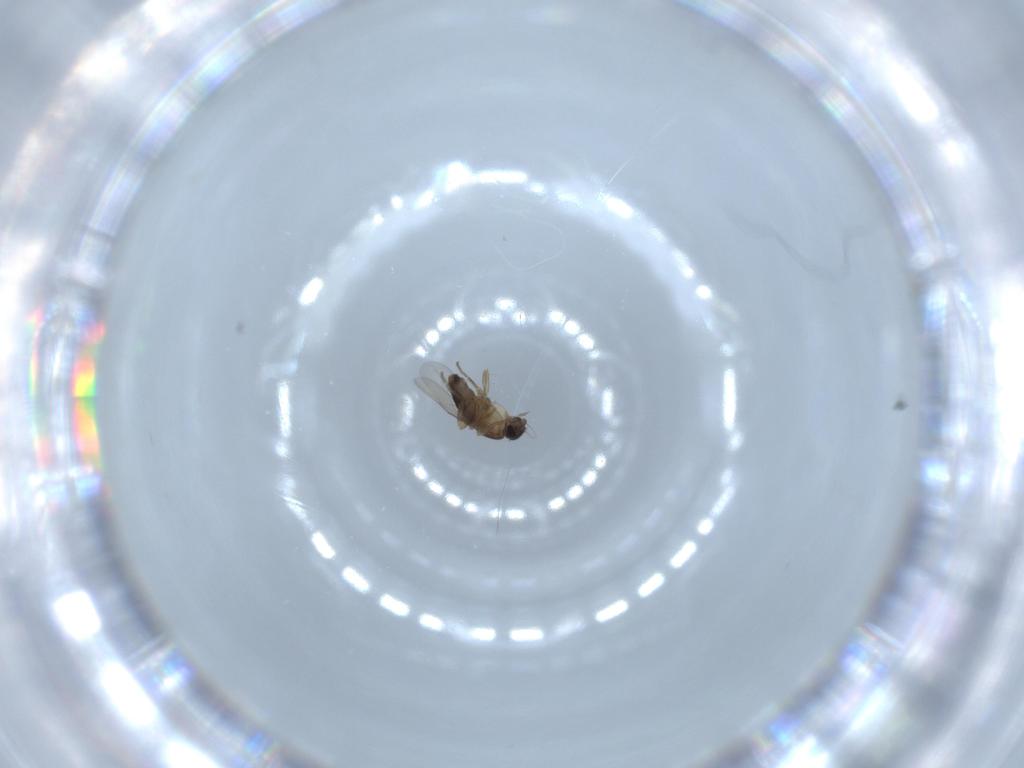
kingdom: Animalia
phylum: Arthropoda
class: Insecta
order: Diptera
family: Phoridae
